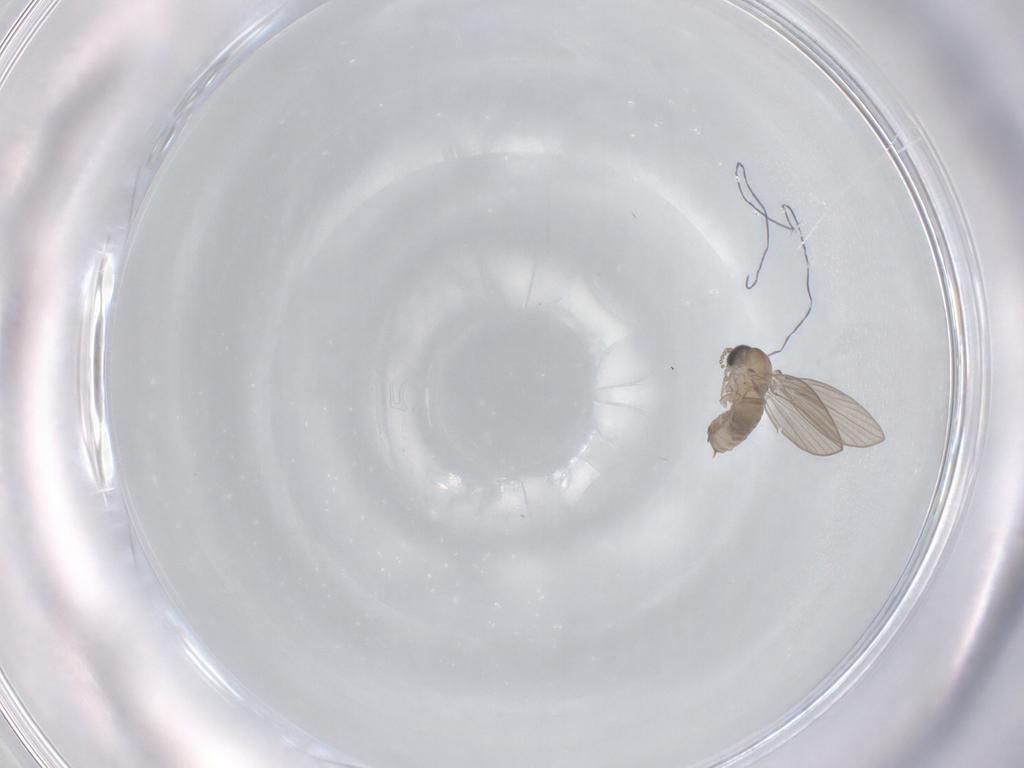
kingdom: Animalia
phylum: Arthropoda
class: Insecta
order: Diptera
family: Psychodidae
